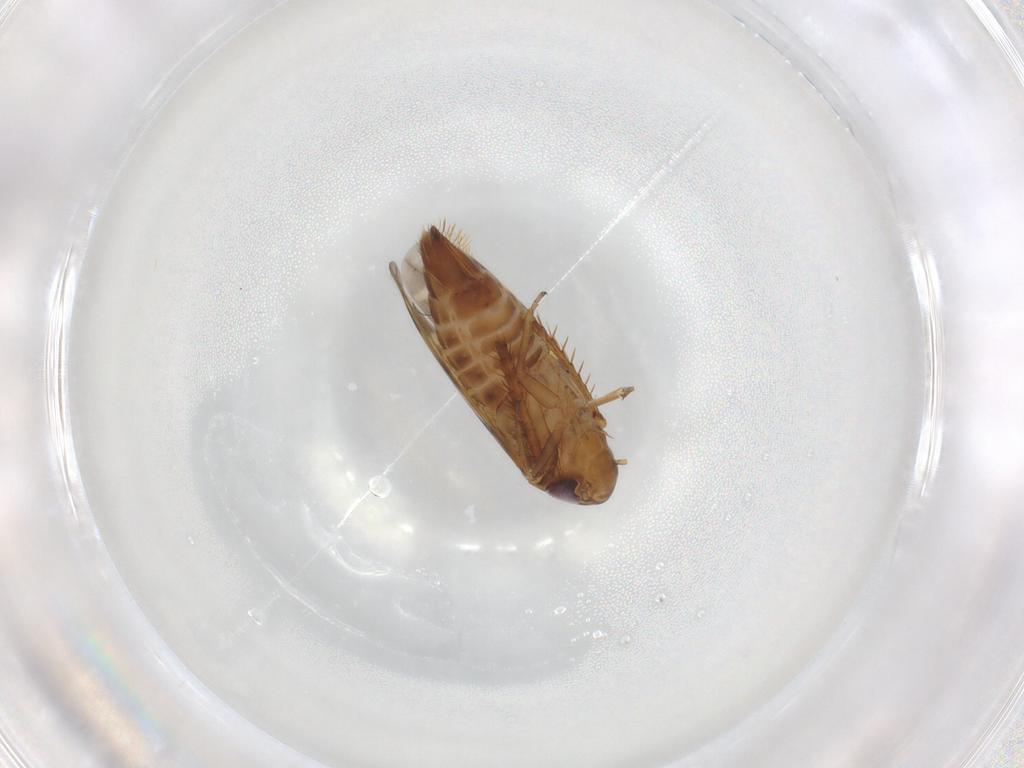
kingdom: Animalia
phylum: Arthropoda
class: Insecta
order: Hemiptera
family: Cicadellidae
